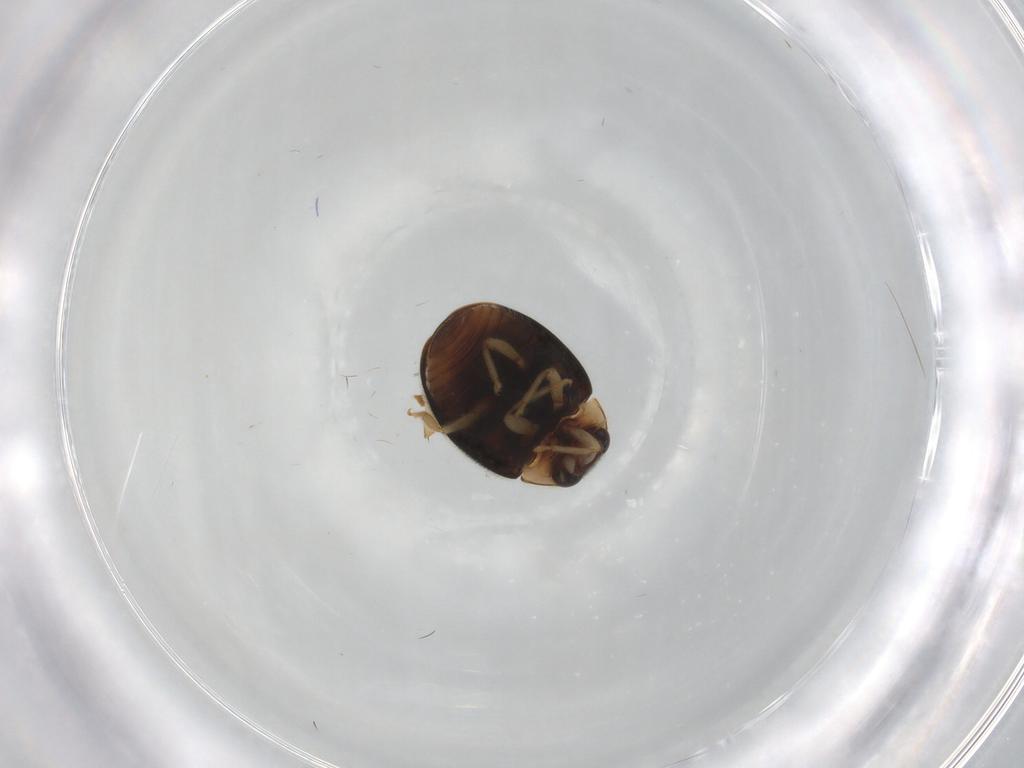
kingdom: Animalia
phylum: Arthropoda
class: Insecta
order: Coleoptera
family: Coccinellidae
